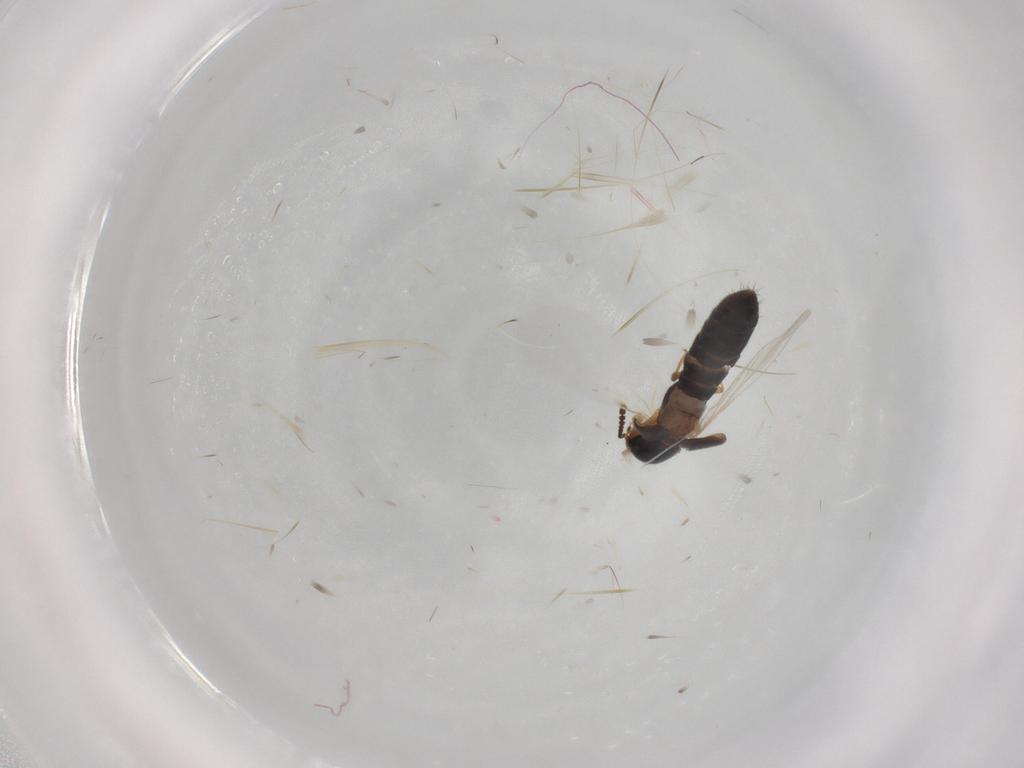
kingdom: Animalia
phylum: Arthropoda
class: Insecta
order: Coleoptera
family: Staphylinidae
